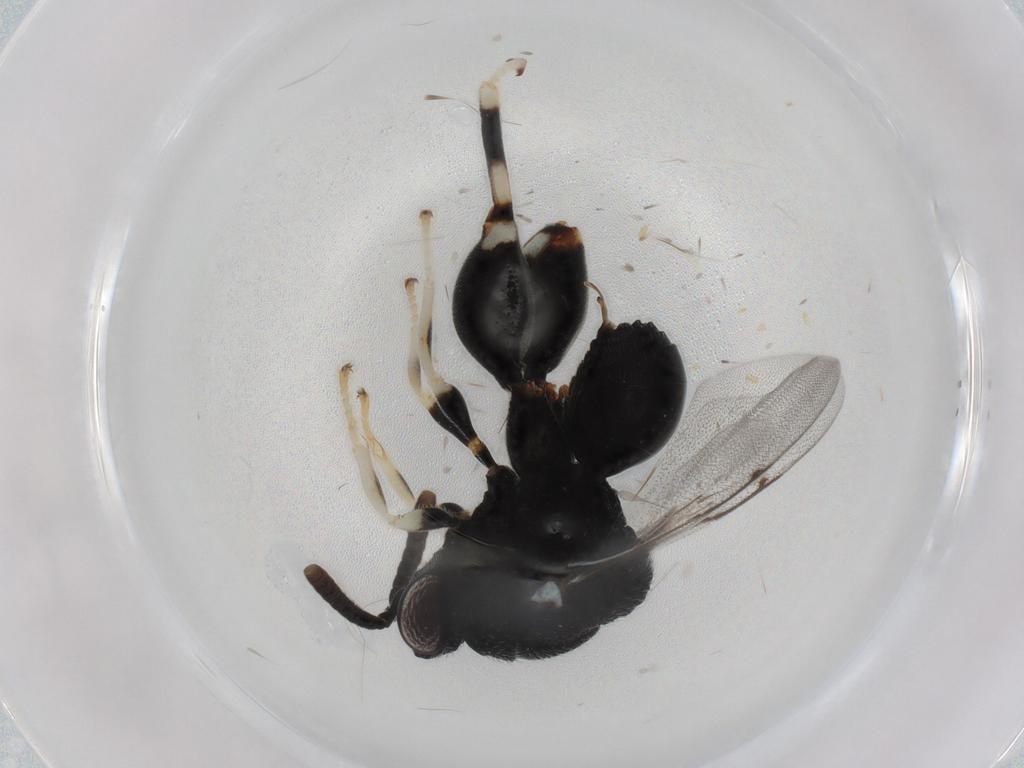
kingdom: Animalia
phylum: Arthropoda
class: Insecta
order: Hymenoptera
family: Chalcididae
